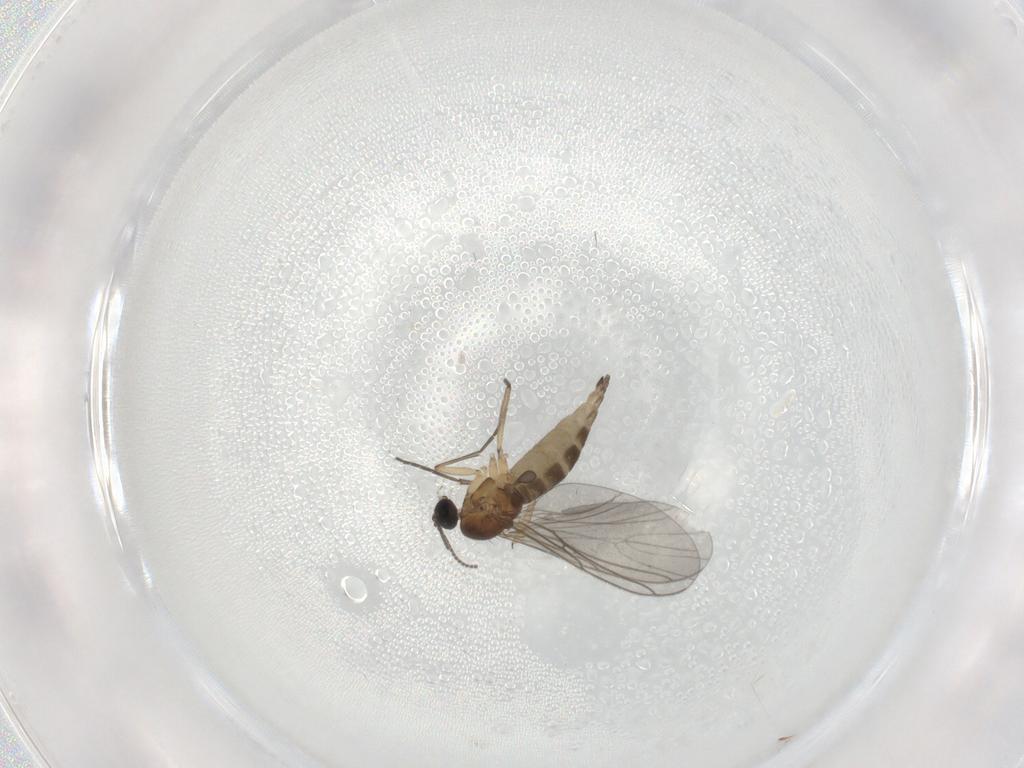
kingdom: Animalia
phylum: Arthropoda
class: Insecta
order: Diptera
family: Sciaridae
